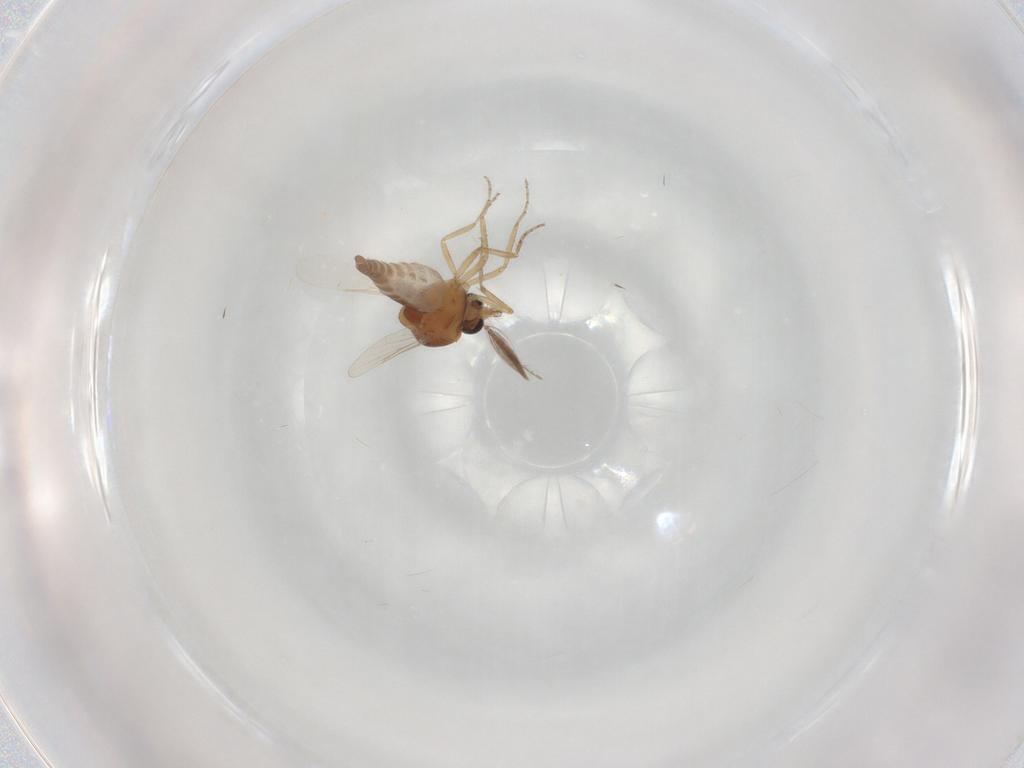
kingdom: Animalia
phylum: Arthropoda
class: Insecta
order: Diptera
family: Ceratopogonidae
